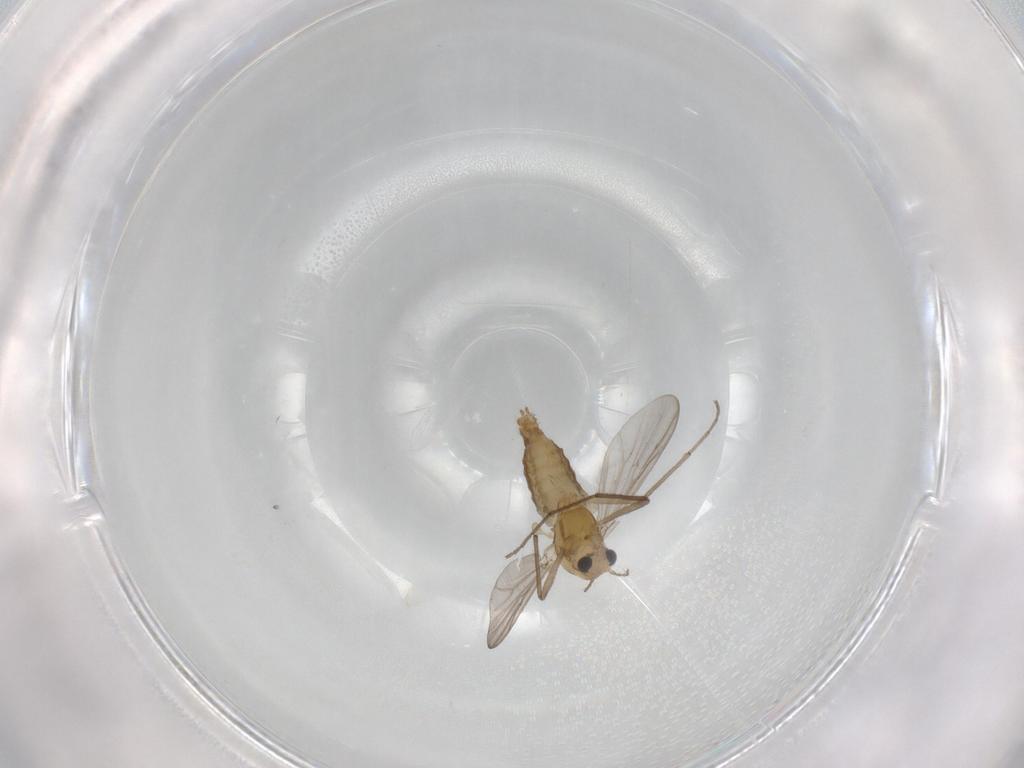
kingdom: Animalia
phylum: Arthropoda
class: Insecta
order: Diptera
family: Chironomidae
